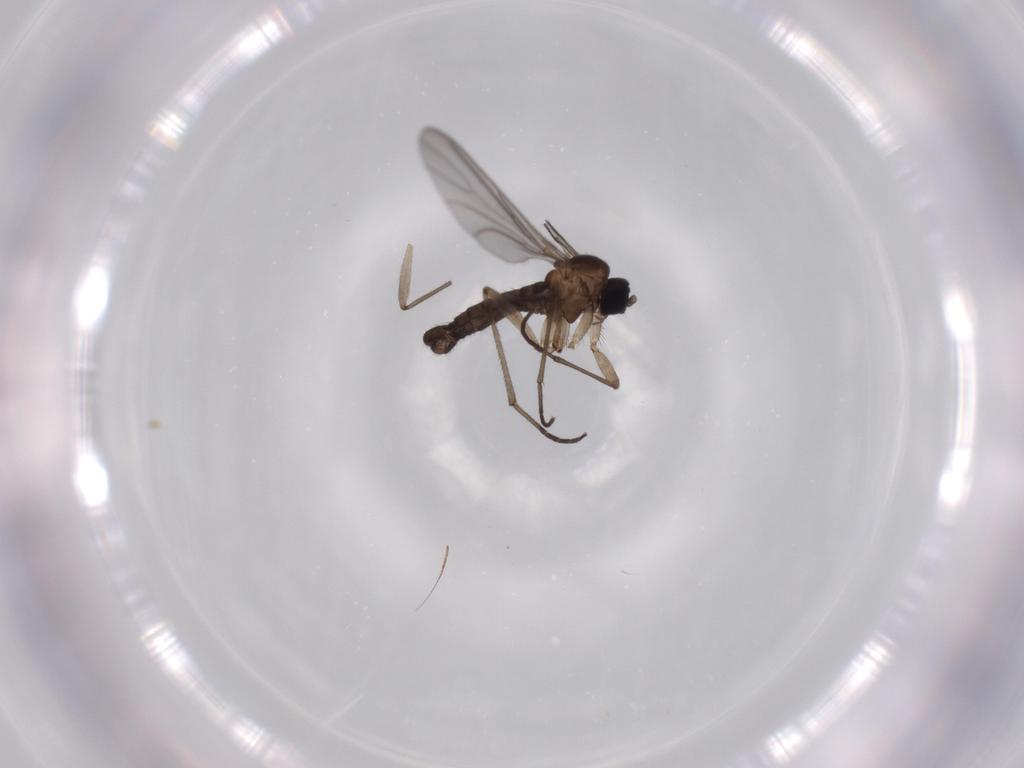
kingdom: Animalia
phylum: Arthropoda
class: Insecta
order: Diptera
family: Sciaridae
